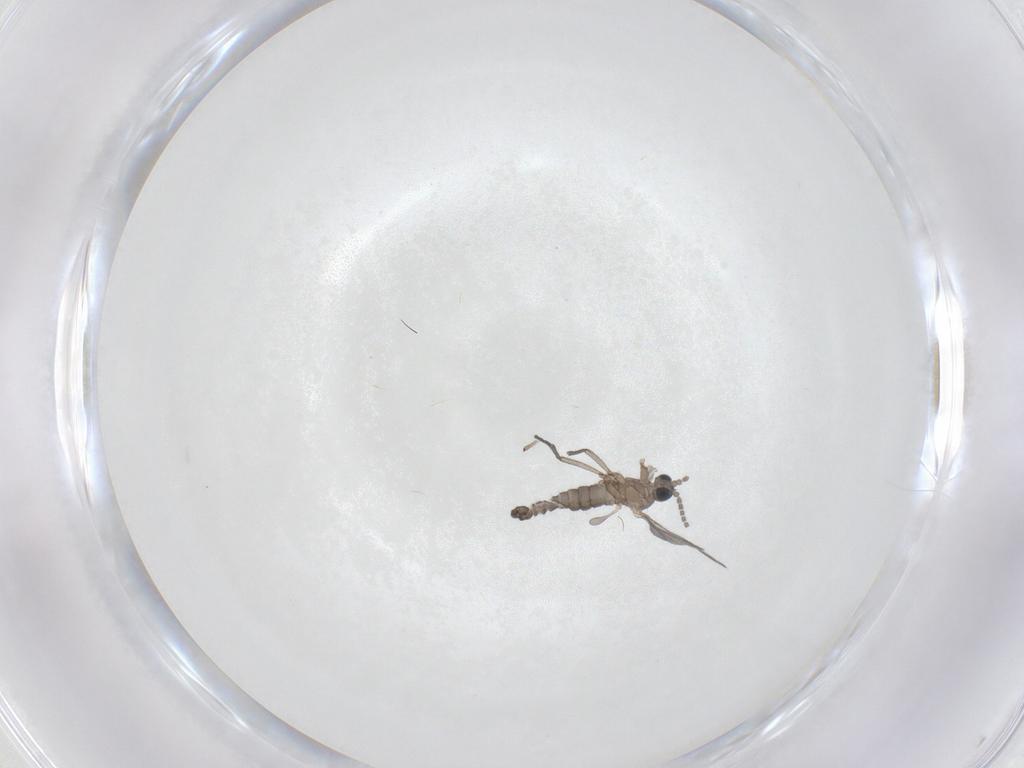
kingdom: Animalia
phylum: Arthropoda
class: Insecta
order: Diptera
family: Sciaridae
